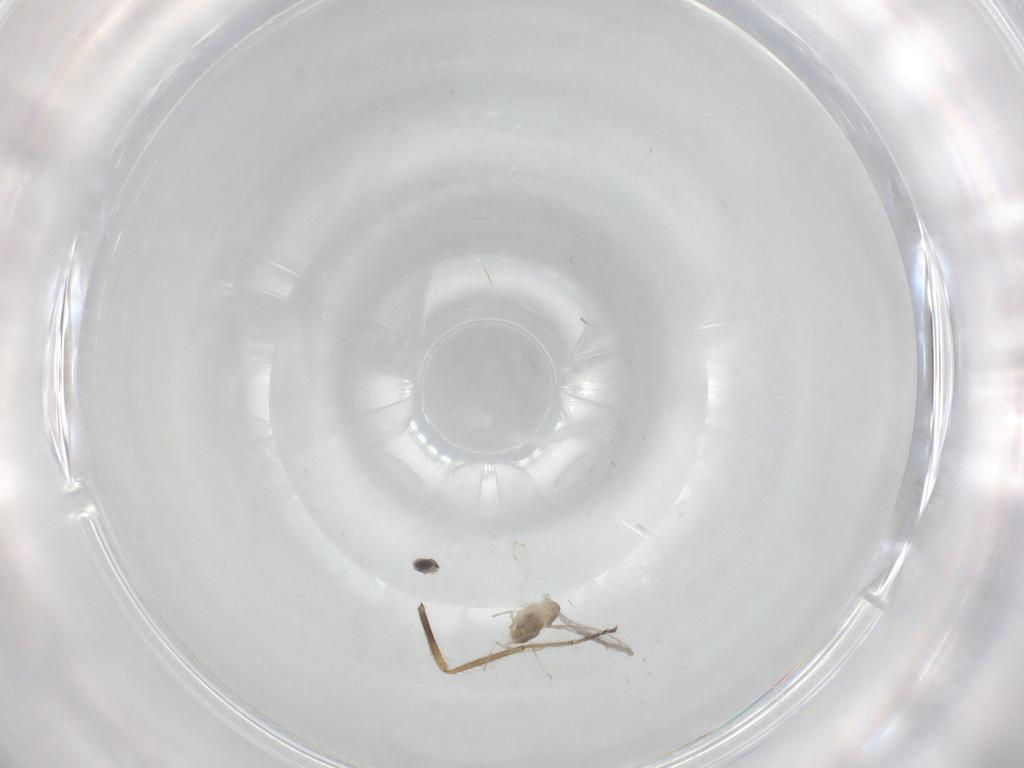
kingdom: Animalia
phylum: Arthropoda
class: Insecta
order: Diptera
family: Cecidomyiidae
